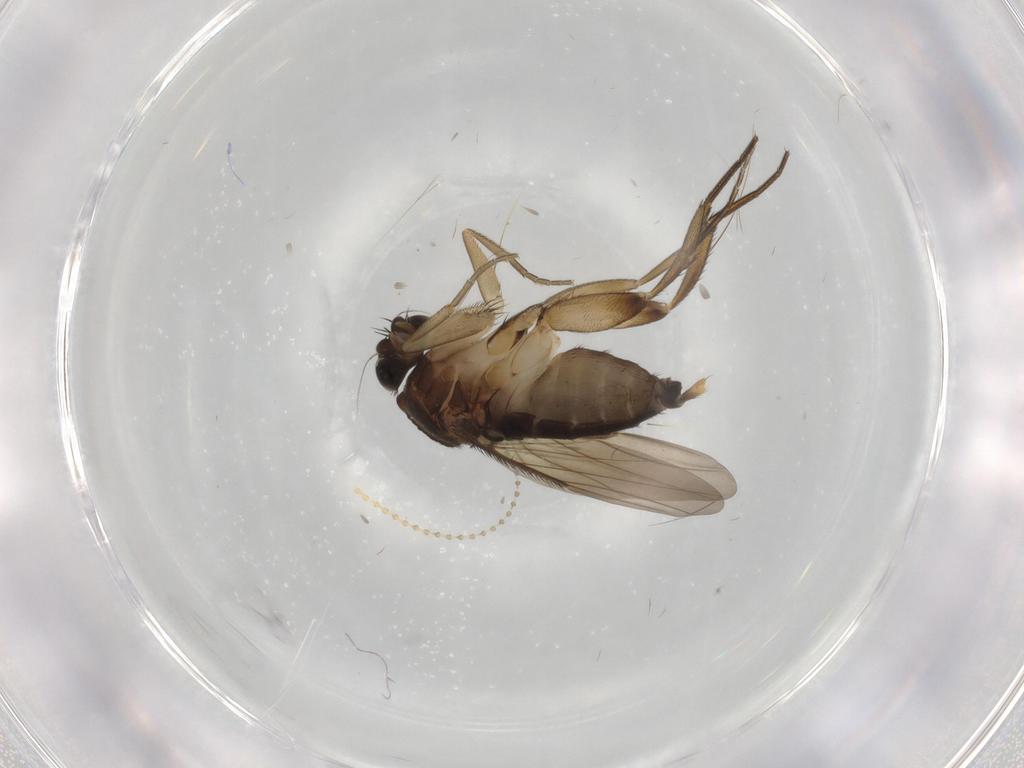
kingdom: Animalia
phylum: Arthropoda
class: Insecta
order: Diptera
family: Phoridae
